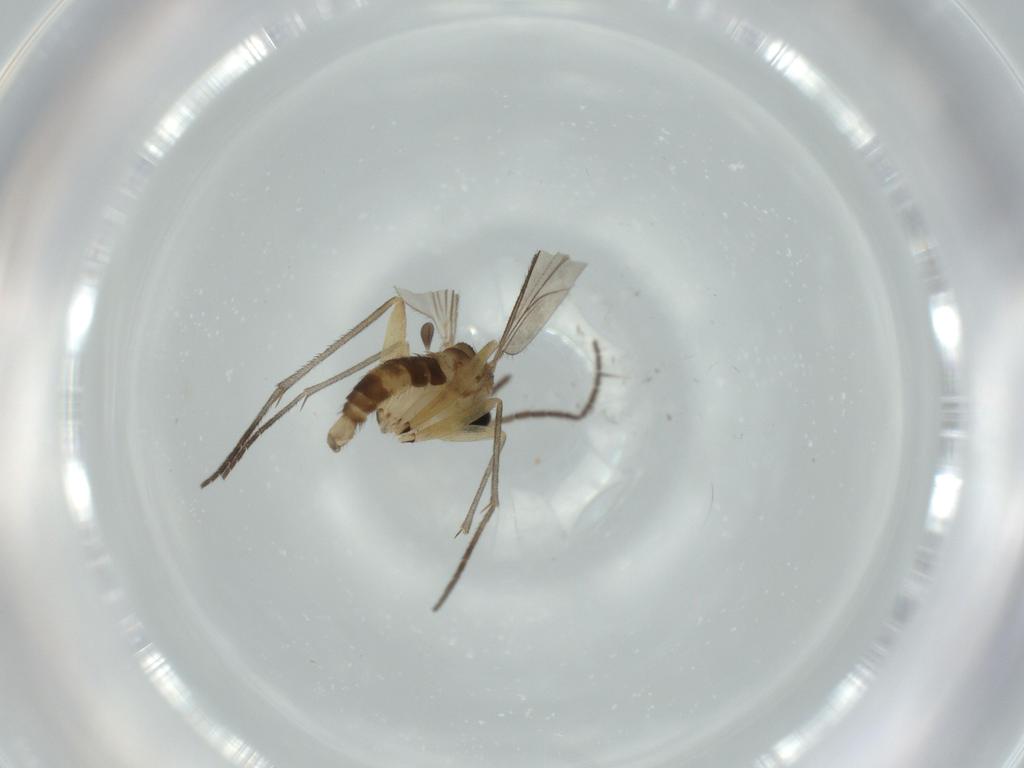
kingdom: Animalia
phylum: Arthropoda
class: Insecta
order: Diptera
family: Sciaridae
